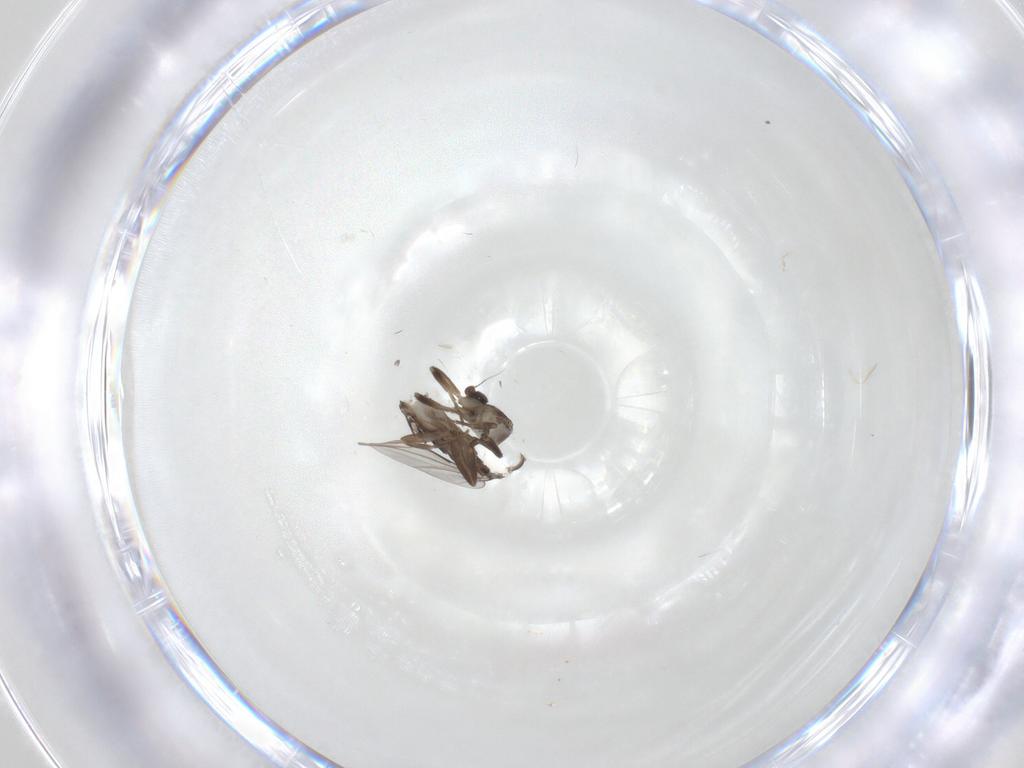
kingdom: Animalia
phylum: Arthropoda
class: Insecta
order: Diptera
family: Phoridae
